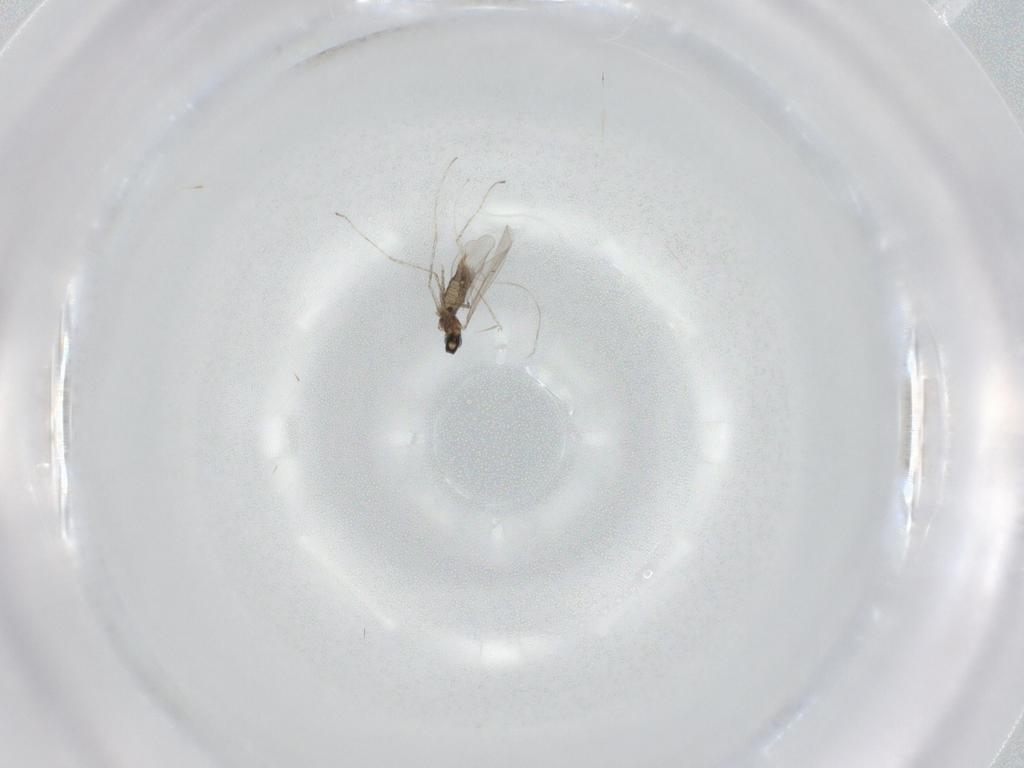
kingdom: Animalia
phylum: Arthropoda
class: Insecta
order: Diptera
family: Cecidomyiidae
